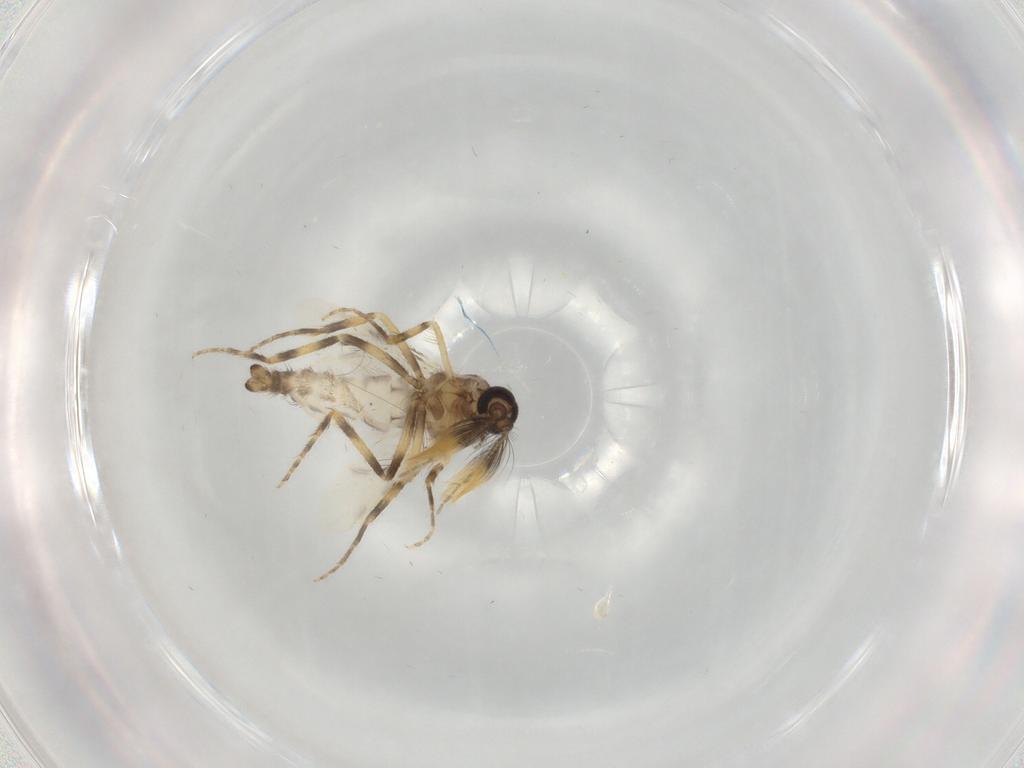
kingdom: Animalia
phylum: Arthropoda
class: Insecta
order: Diptera
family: Ceratopogonidae
